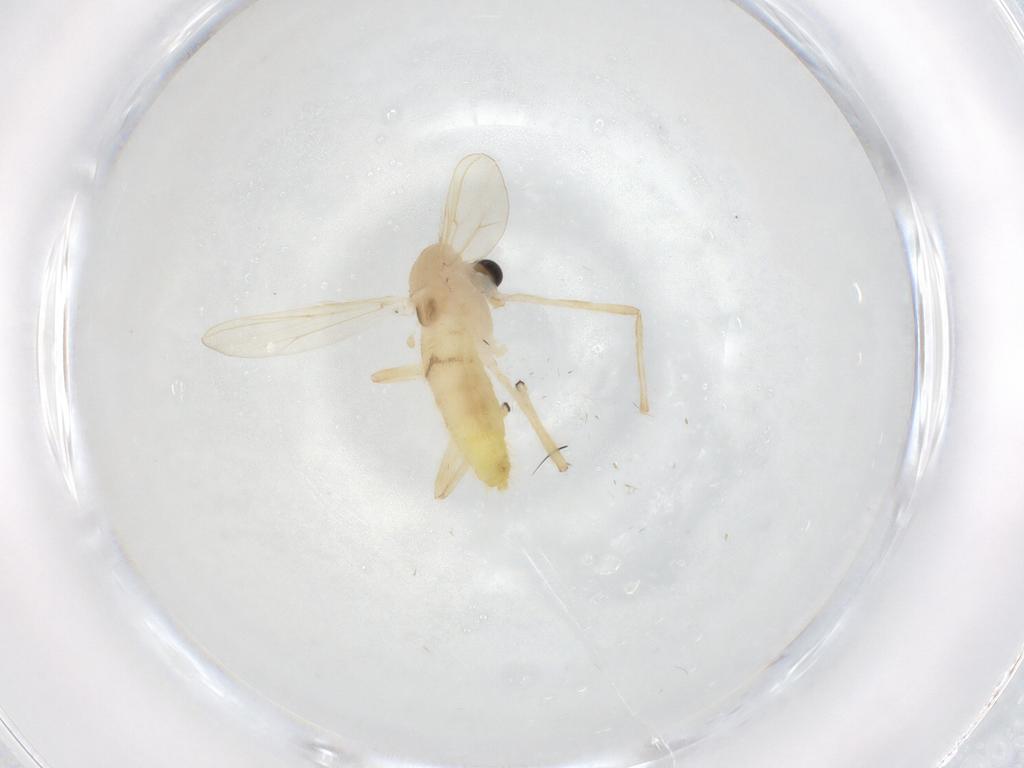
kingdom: Animalia
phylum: Arthropoda
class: Insecta
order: Diptera
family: Chironomidae
